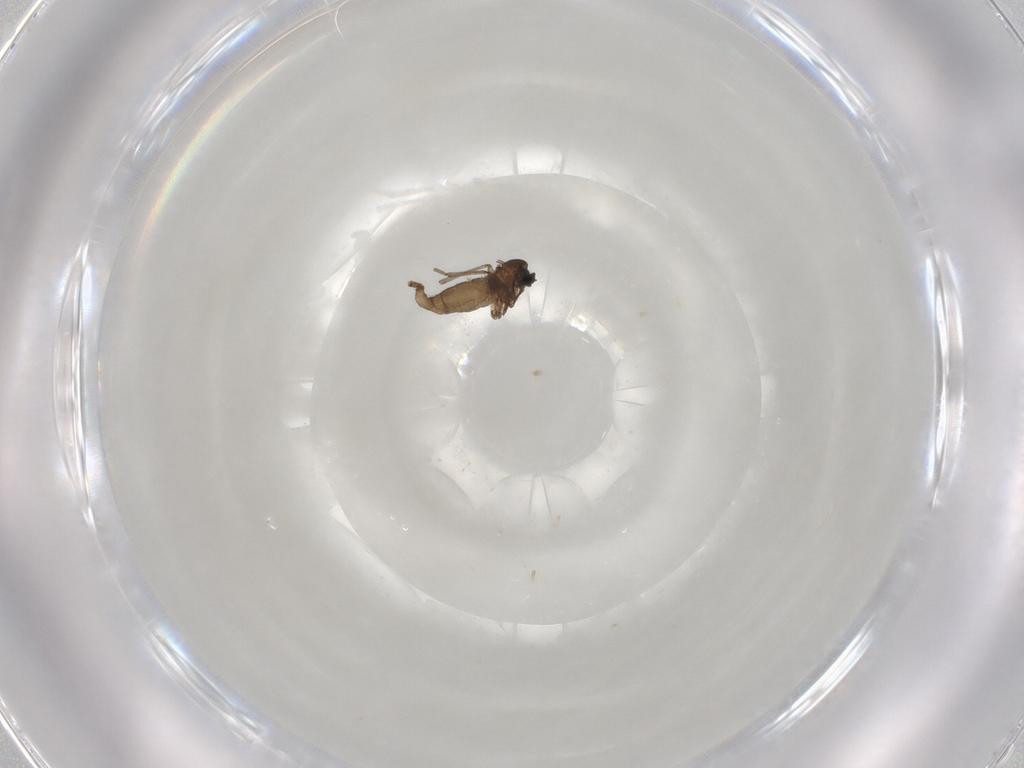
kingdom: Animalia
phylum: Arthropoda
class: Insecta
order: Diptera
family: Sciaridae
